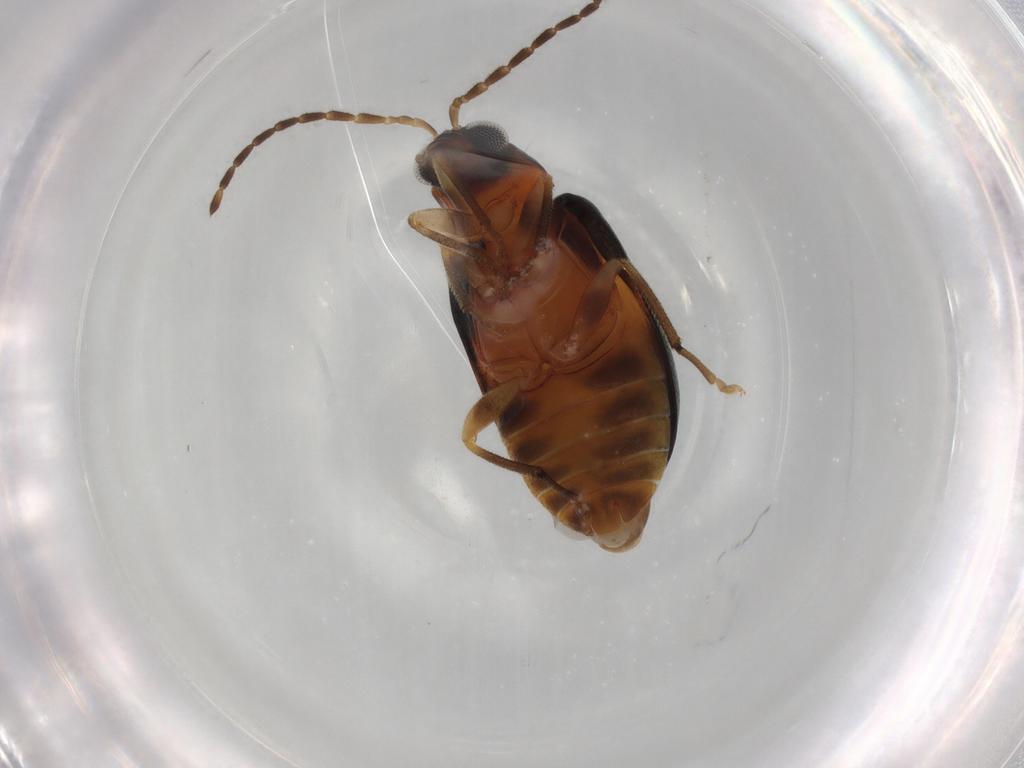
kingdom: Animalia
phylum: Arthropoda
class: Insecta
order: Coleoptera
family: Chrysomelidae
